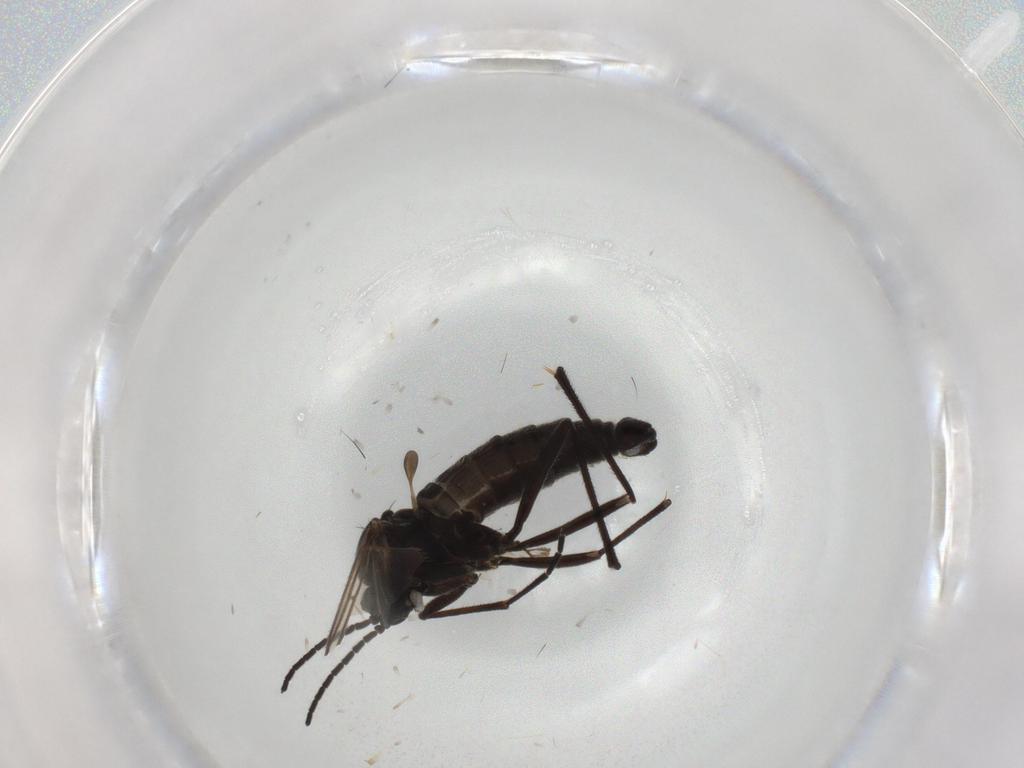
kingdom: Animalia
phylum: Arthropoda
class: Insecta
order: Diptera
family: Sciaridae
